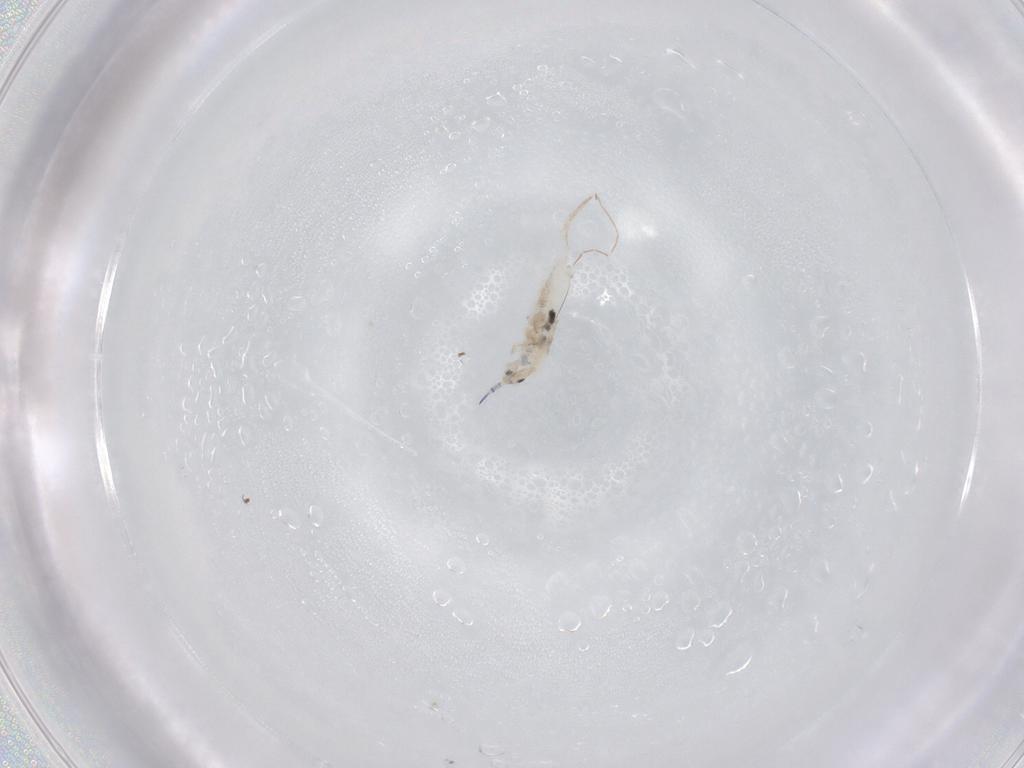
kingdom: Animalia
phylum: Arthropoda
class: Collembola
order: Entomobryomorpha
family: Entomobryidae
